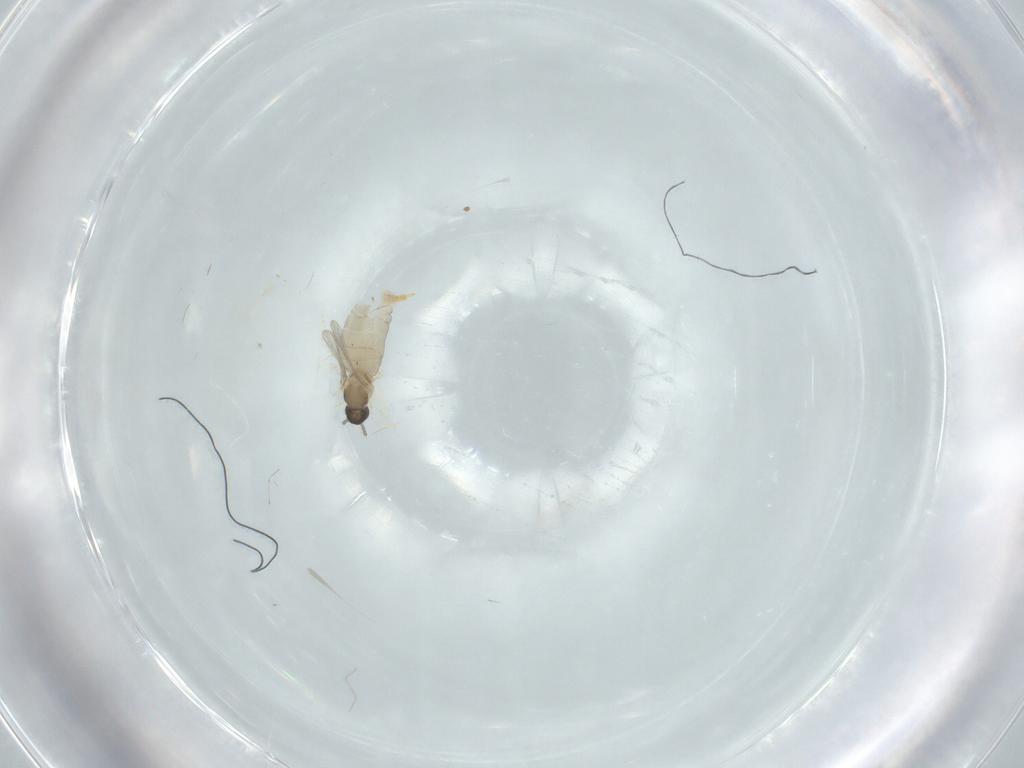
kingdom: Animalia
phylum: Arthropoda
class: Insecta
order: Diptera
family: Cecidomyiidae
